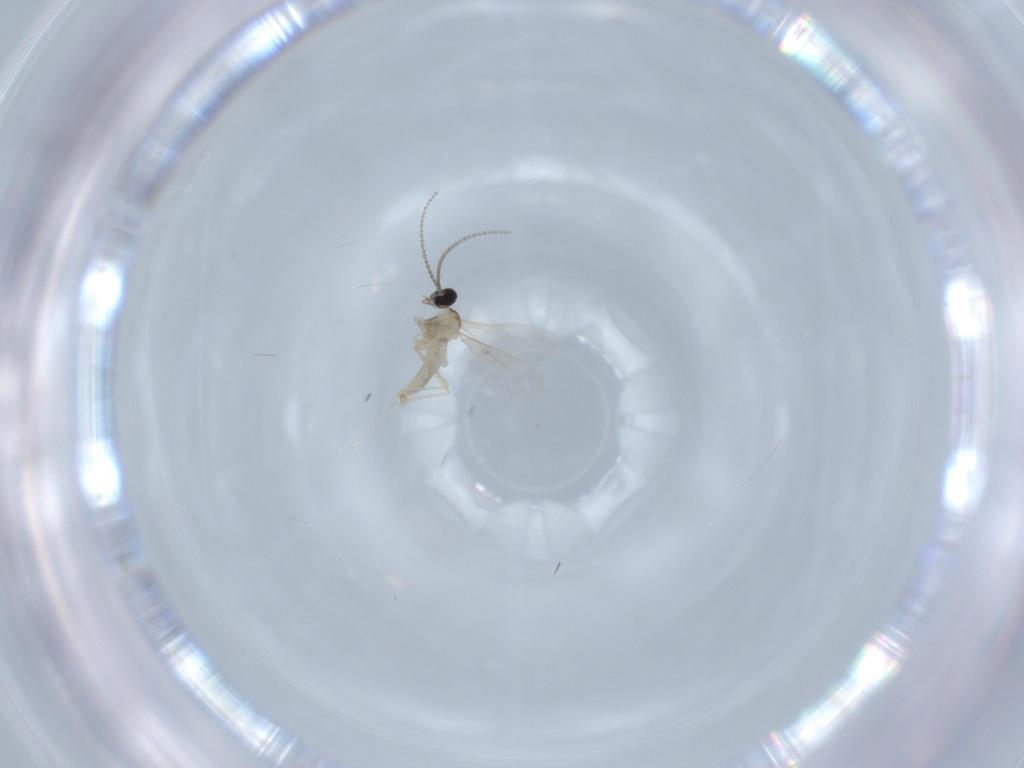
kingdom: Animalia
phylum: Arthropoda
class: Insecta
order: Diptera
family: Cecidomyiidae
